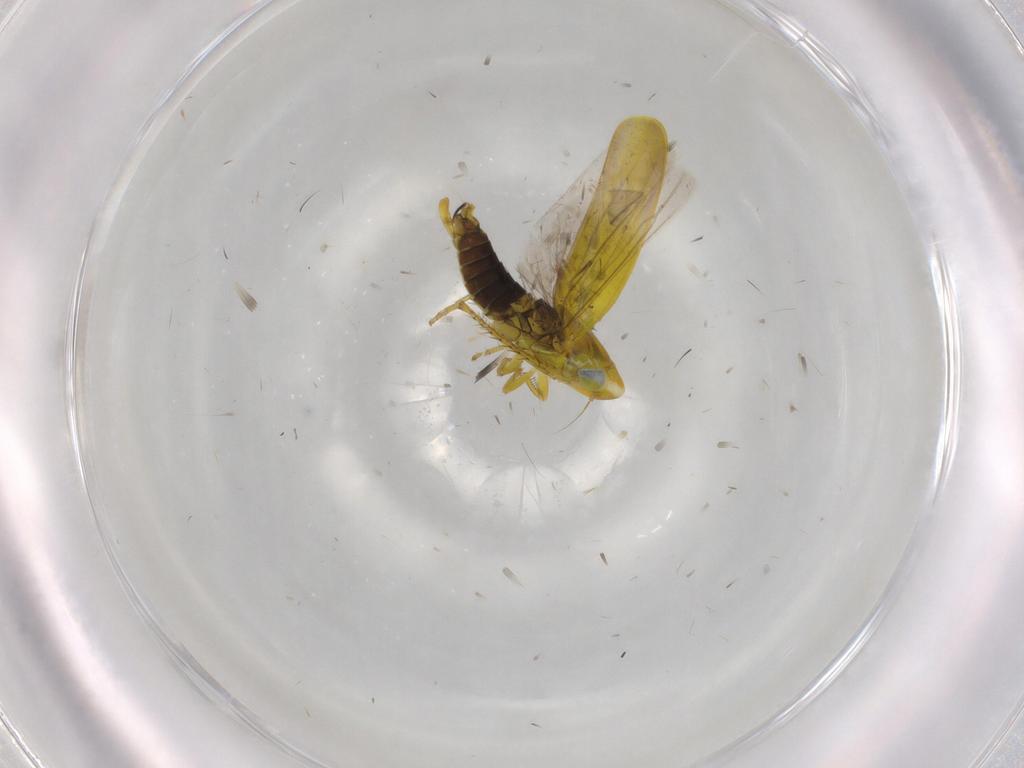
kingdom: Animalia
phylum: Arthropoda
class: Insecta
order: Hemiptera
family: Cicadellidae
